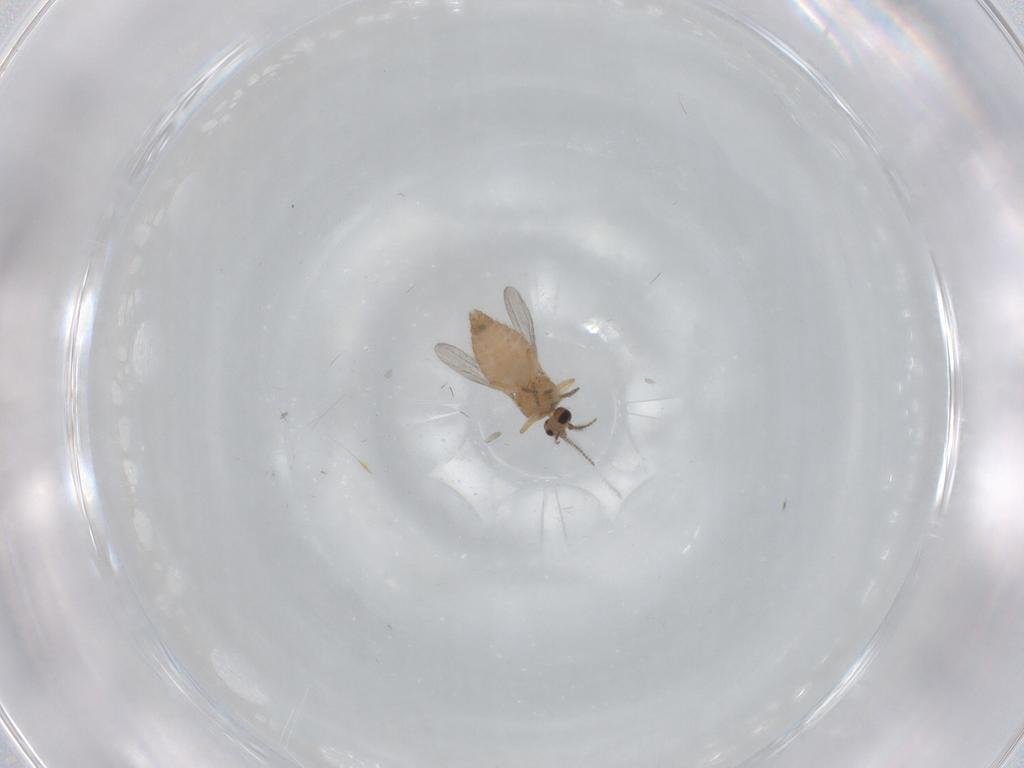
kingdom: Animalia
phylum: Arthropoda
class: Insecta
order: Diptera
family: Ceratopogonidae
